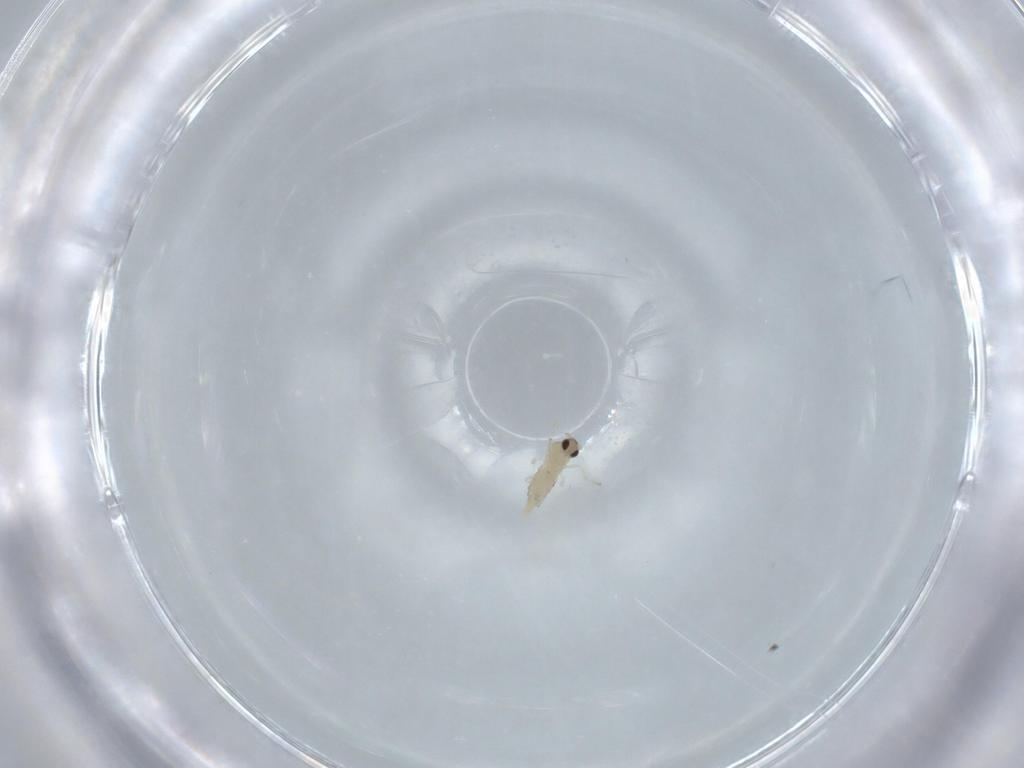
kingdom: Animalia
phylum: Arthropoda
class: Insecta
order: Diptera
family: Cecidomyiidae
